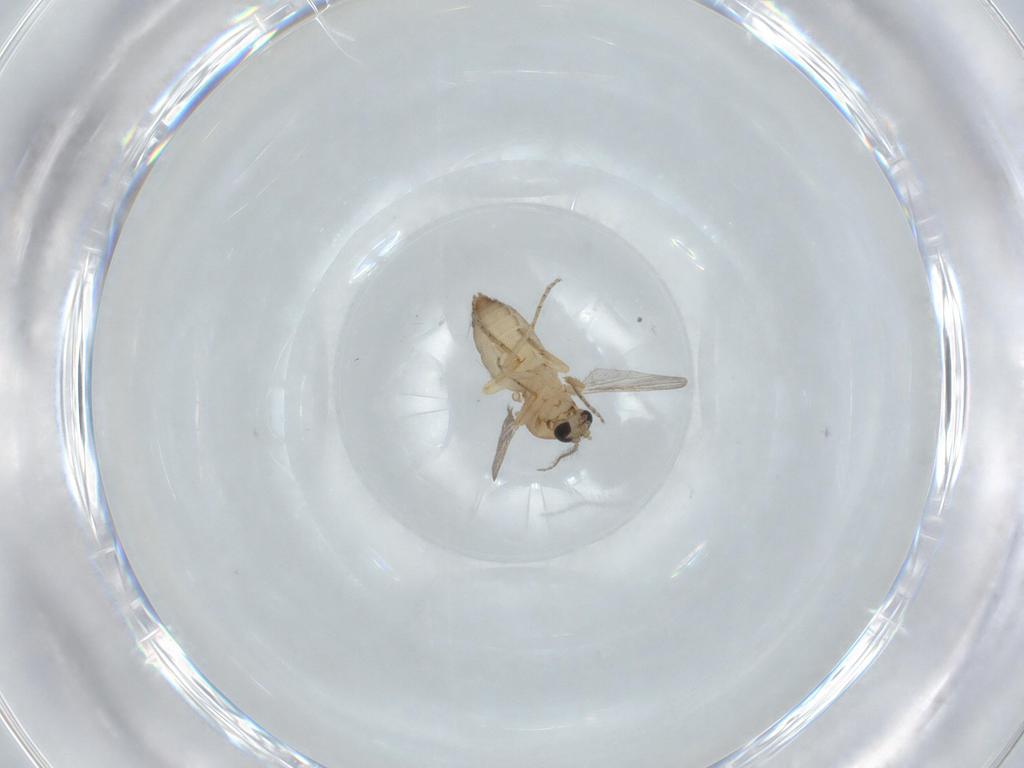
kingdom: Animalia
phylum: Arthropoda
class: Insecta
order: Diptera
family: Ceratopogonidae
